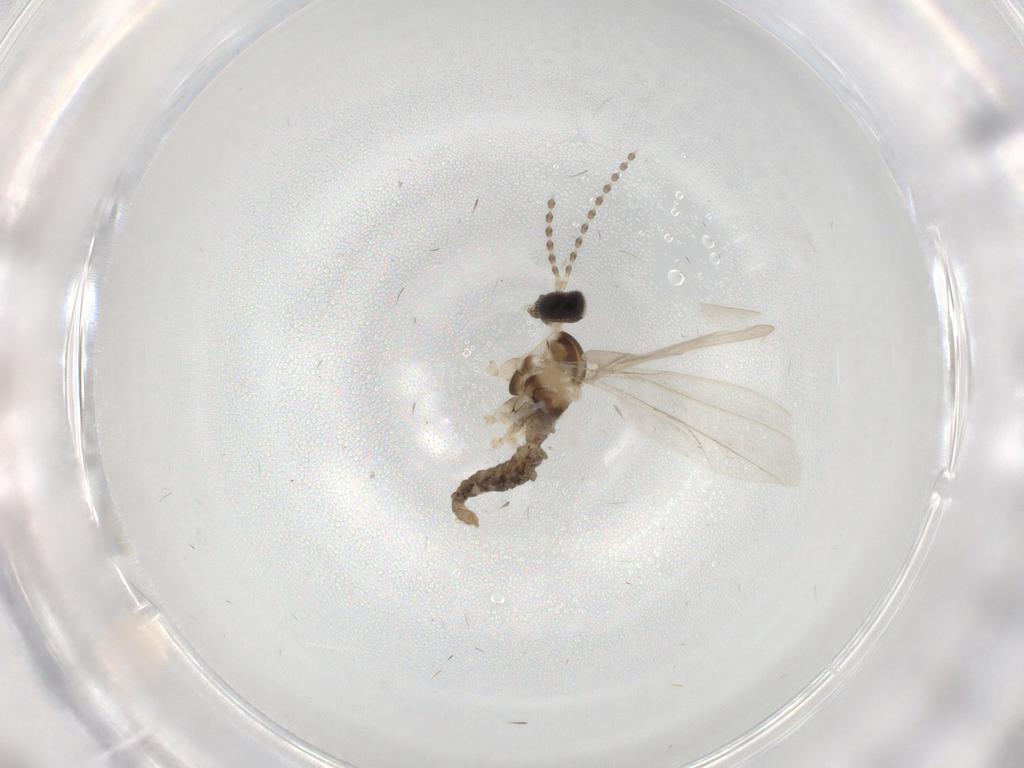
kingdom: Animalia
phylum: Arthropoda
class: Insecta
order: Diptera
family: Cecidomyiidae
